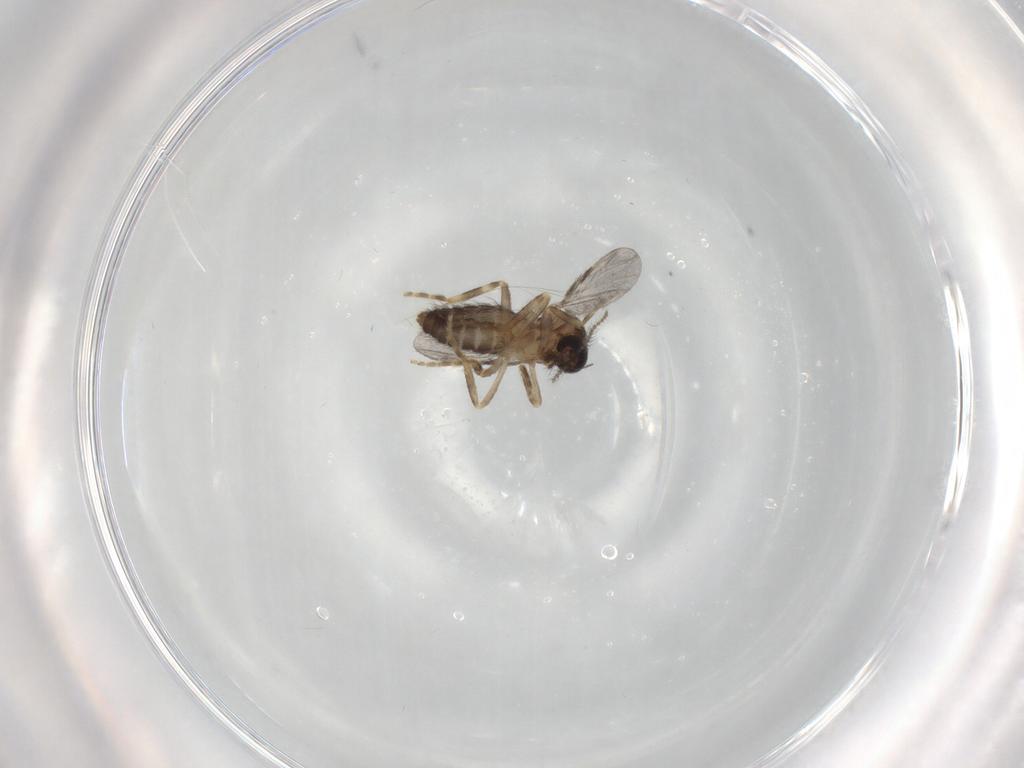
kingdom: Animalia
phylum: Arthropoda
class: Insecta
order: Diptera
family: Ceratopogonidae
